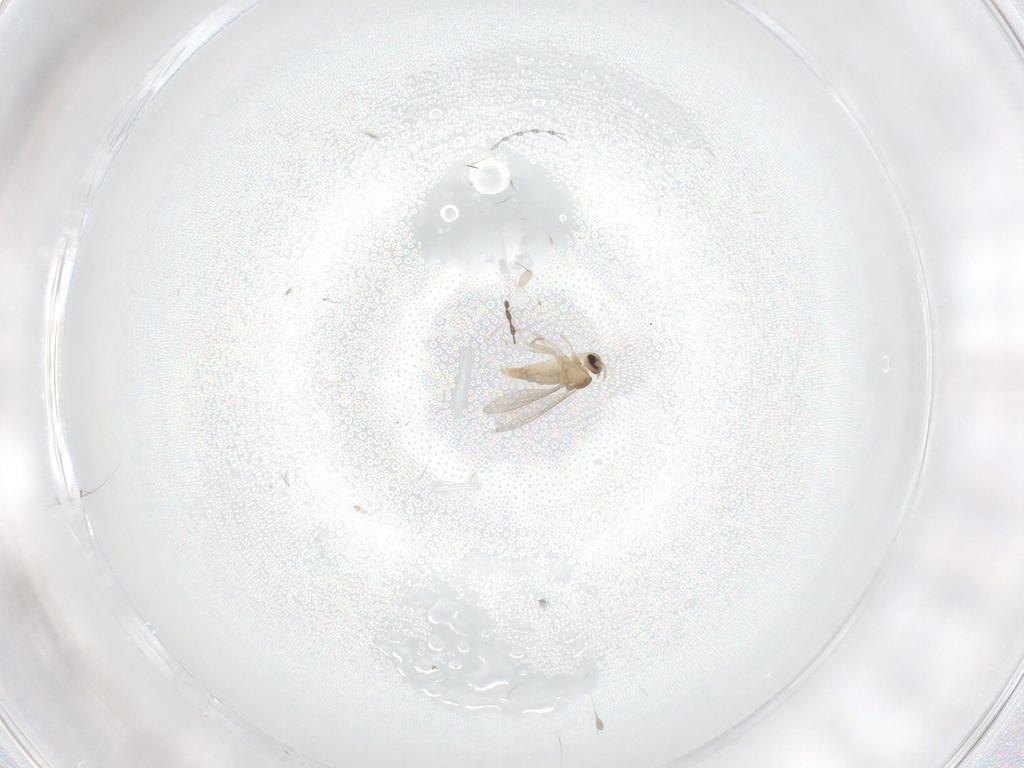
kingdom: Animalia
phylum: Arthropoda
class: Insecta
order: Diptera
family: Cecidomyiidae
